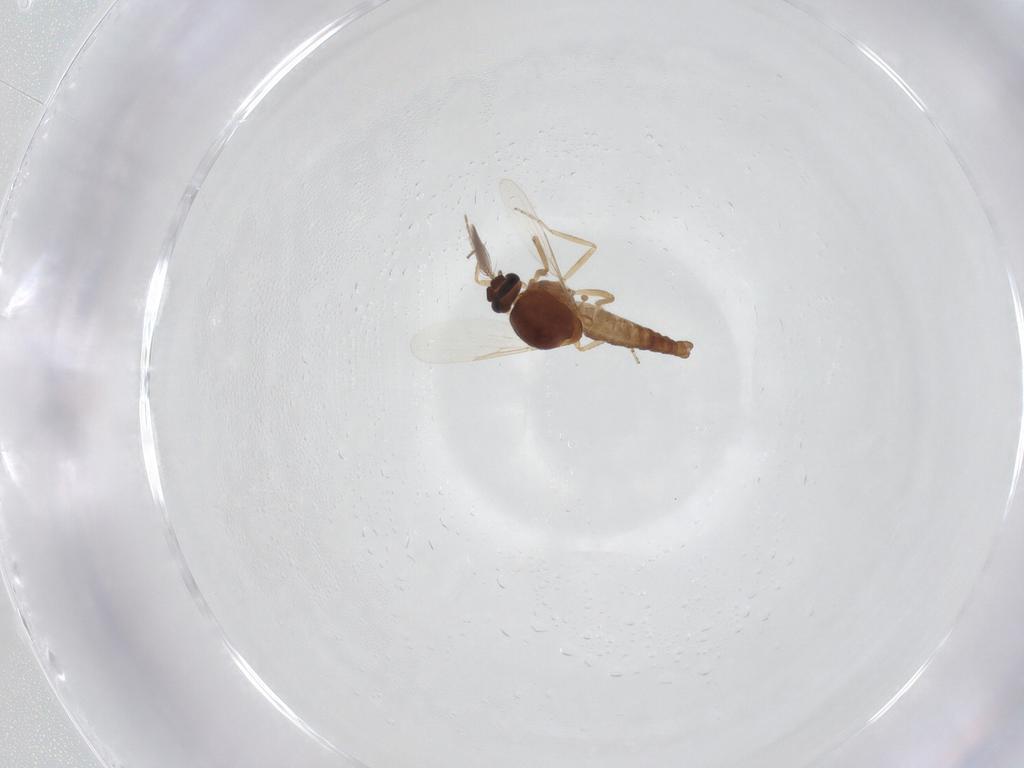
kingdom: Animalia
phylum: Arthropoda
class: Insecta
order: Diptera
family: Ceratopogonidae
